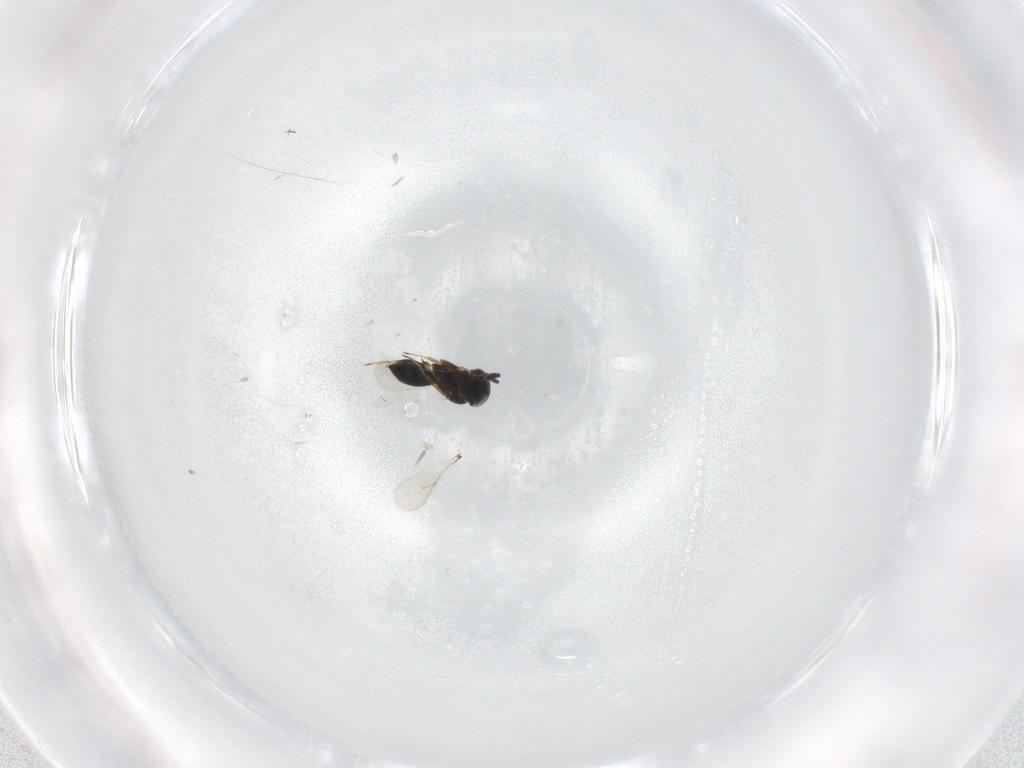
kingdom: Animalia
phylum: Arthropoda
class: Insecta
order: Hymenoptera
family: Scelionidae
